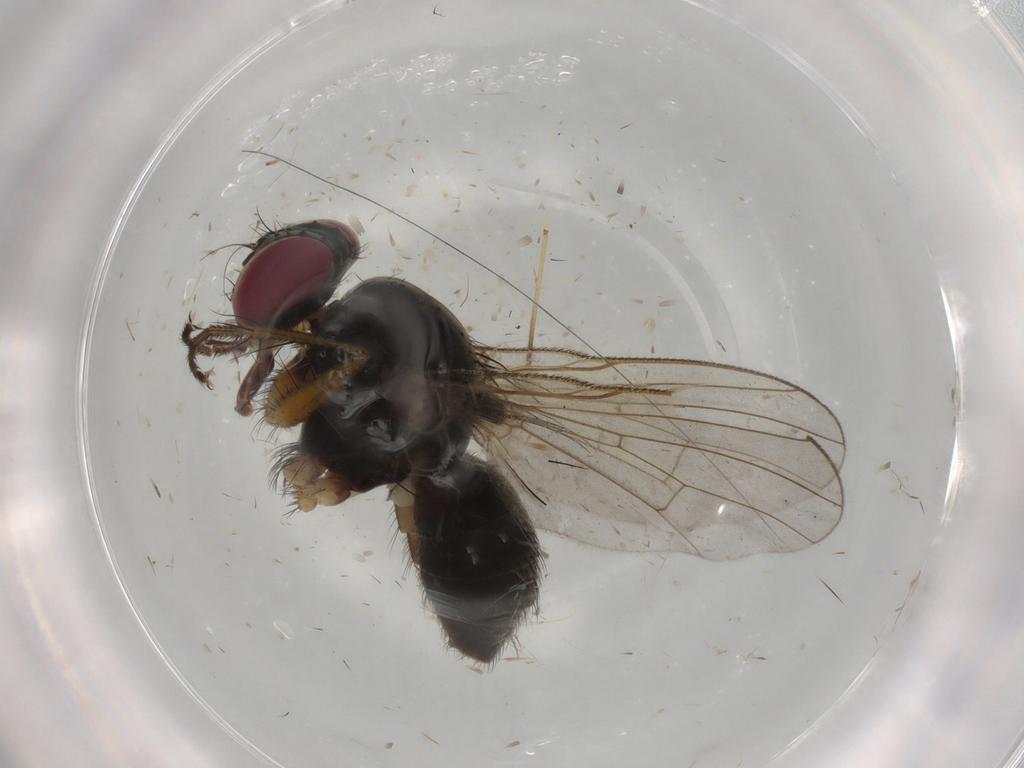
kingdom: Animalia
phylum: Arthropoda
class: Insecta
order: Diptera
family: Muscidae
